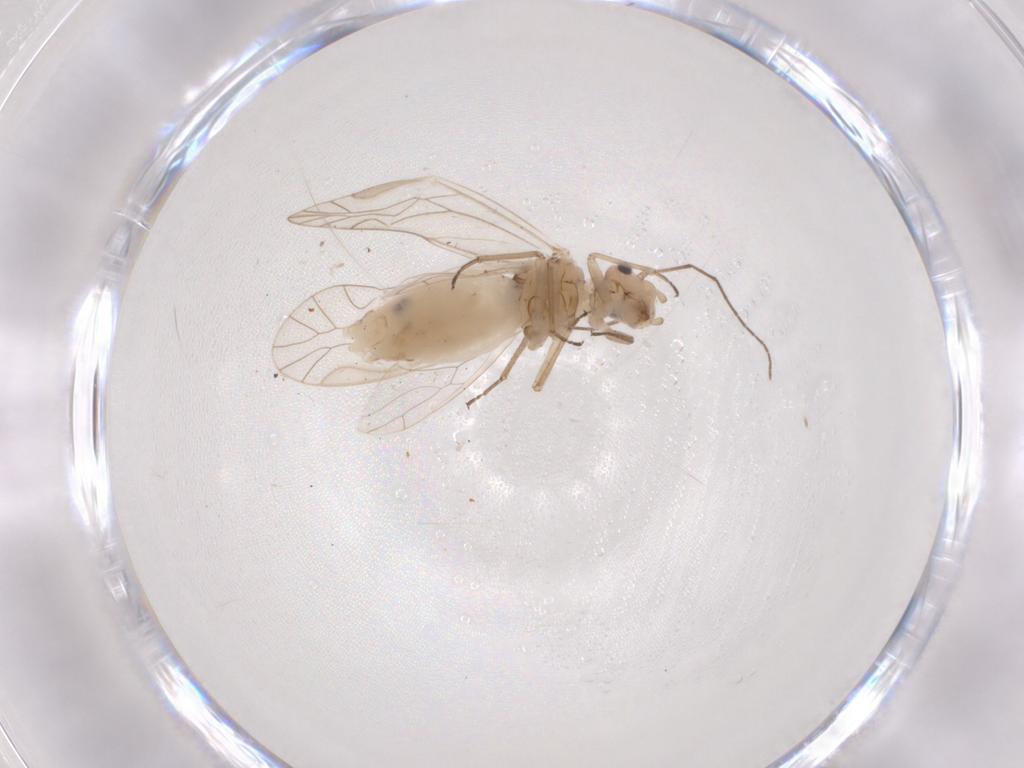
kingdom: Animalia
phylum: Arthropoda
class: Insecta
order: Psocodea
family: Elipsocidae
